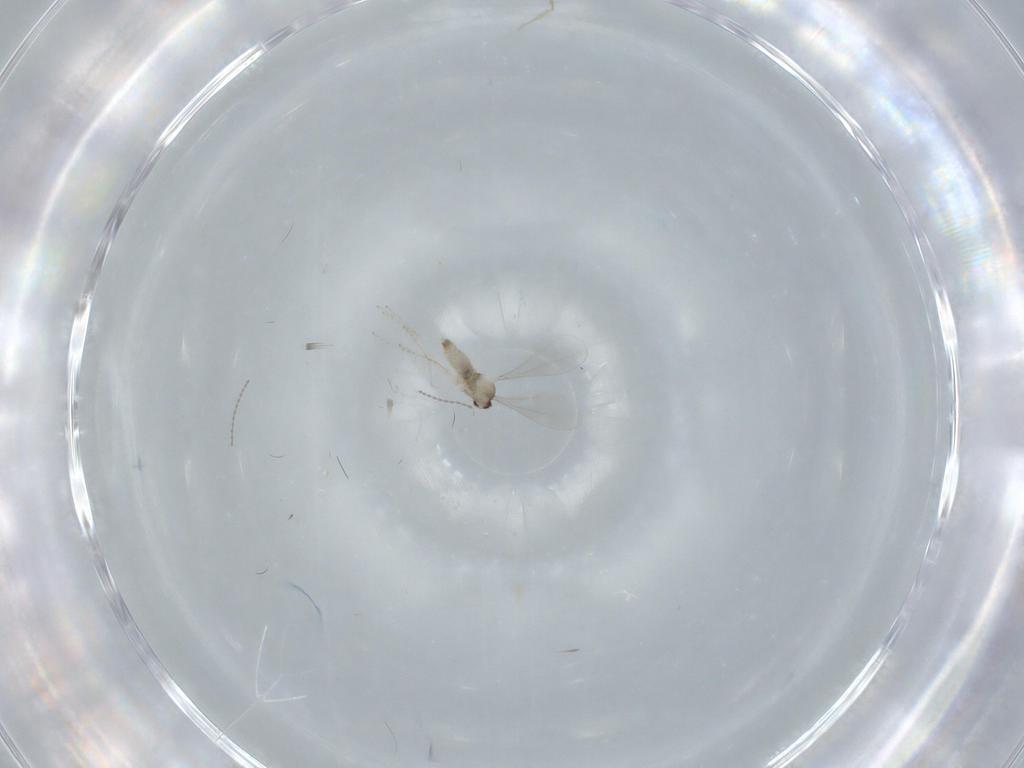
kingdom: Animalia
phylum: Arthropoda
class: Insecta
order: Diptera
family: Cecidomyiidae
